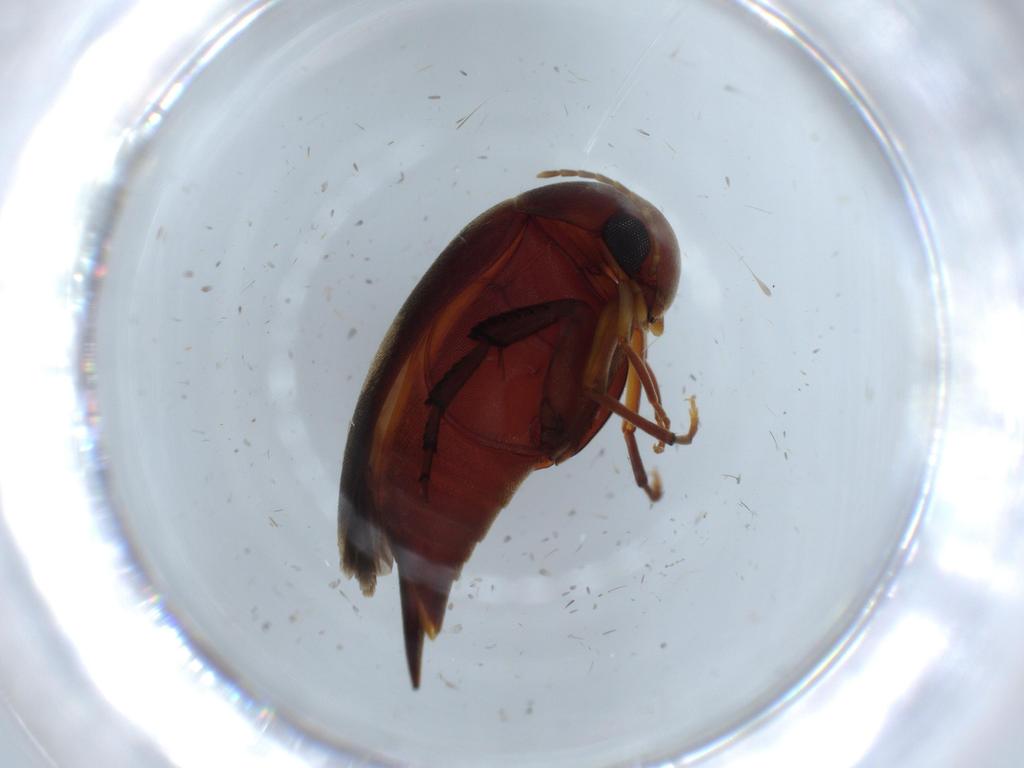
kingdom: Animalia
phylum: Arthropoda
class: Insecta
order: Coleoptera
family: Mordellidae
